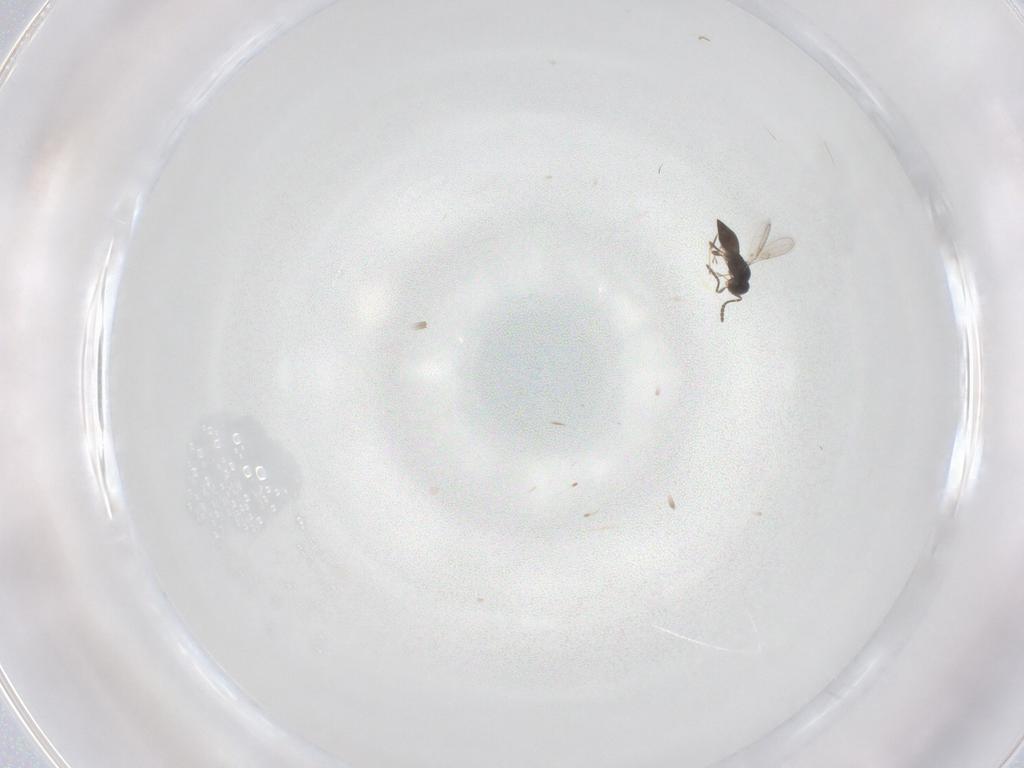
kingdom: Animalia
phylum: Arthropoda
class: Insecta
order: Hymenoptera
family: Scelionidae
